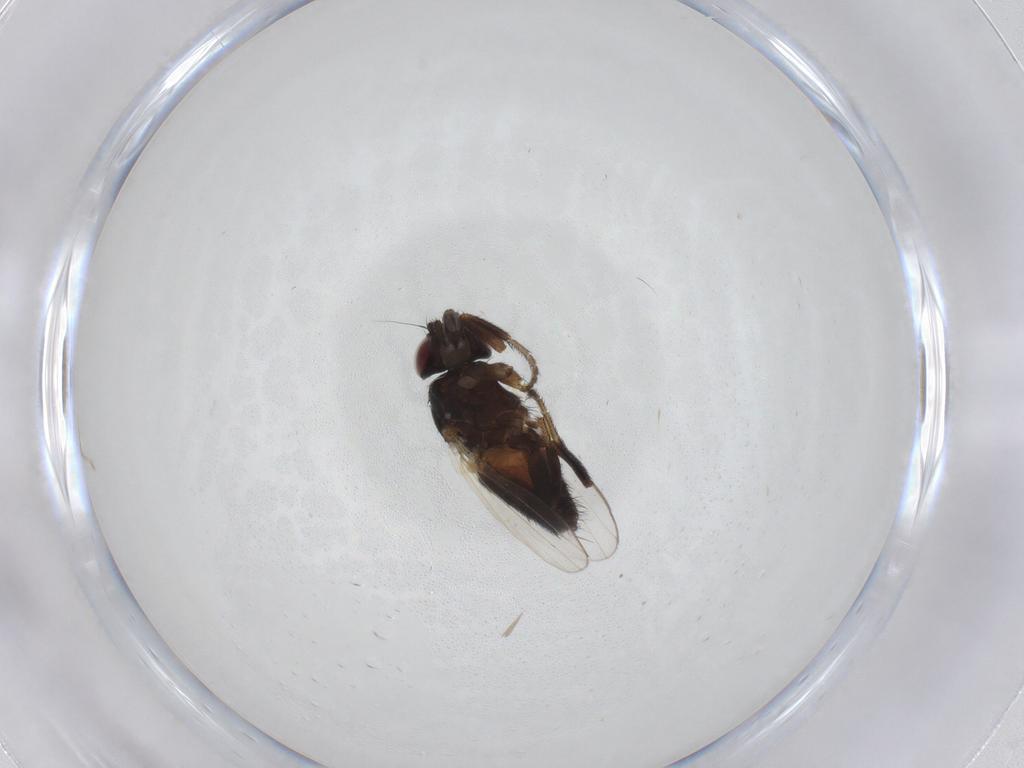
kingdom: Animalia
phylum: Arthropoda
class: Insecta
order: Diptera
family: Milichiidae
